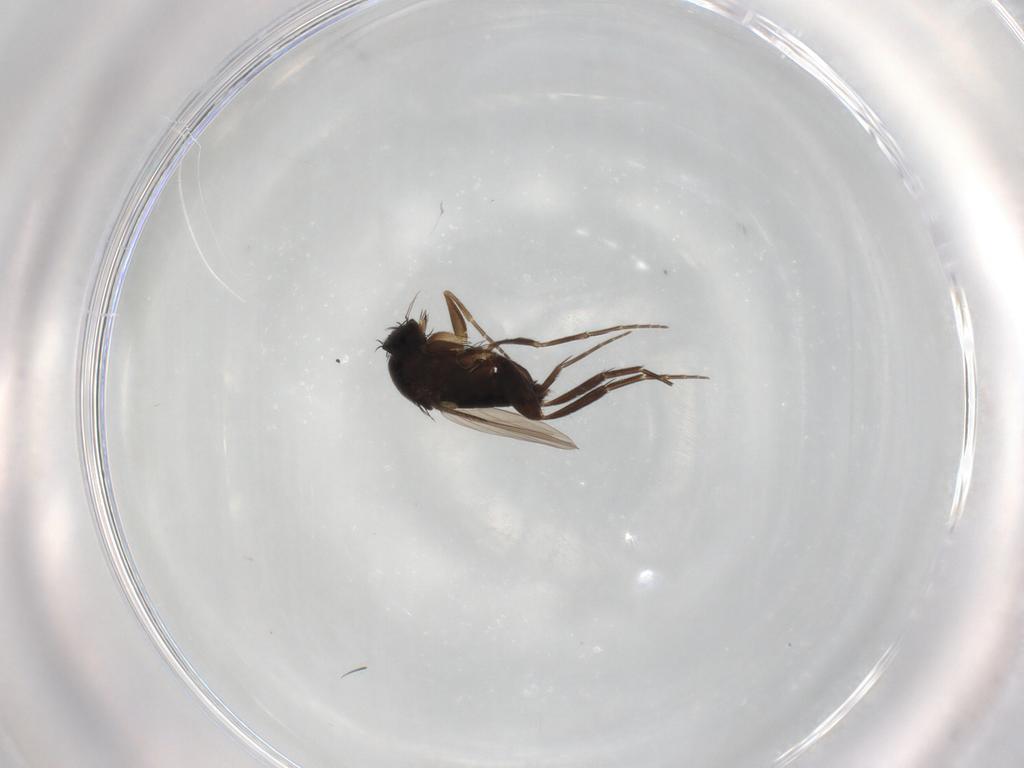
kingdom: Animalia
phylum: Arthropoda
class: Insecta
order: Diptera
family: Phoridae
